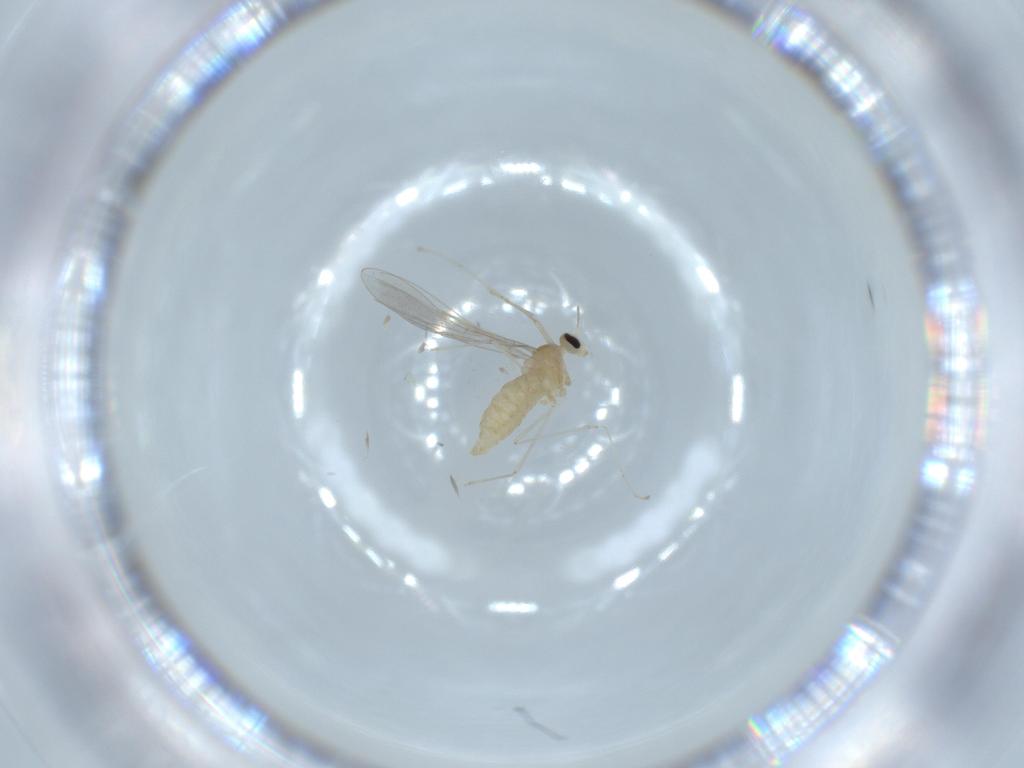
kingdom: Animalia
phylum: Arthropoda
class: Insecta
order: Diptera
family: Cecidomyiidae
